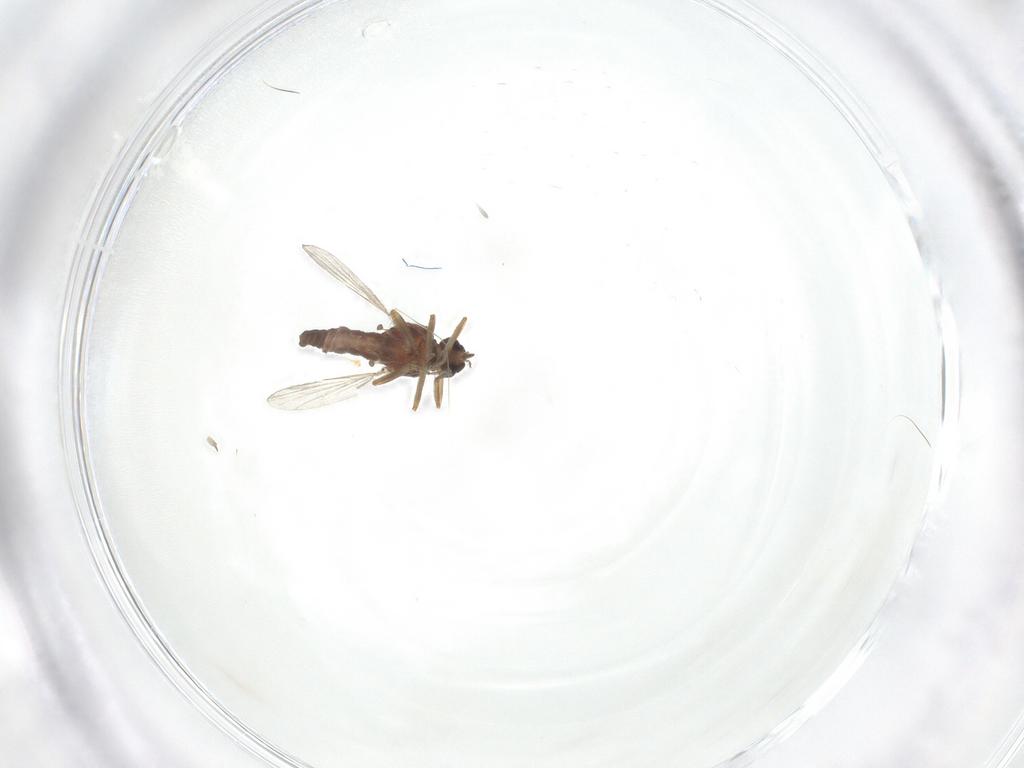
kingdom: Animalia
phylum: Arthropoda
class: Insecta
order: Diptera
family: Ceratopogonidae
